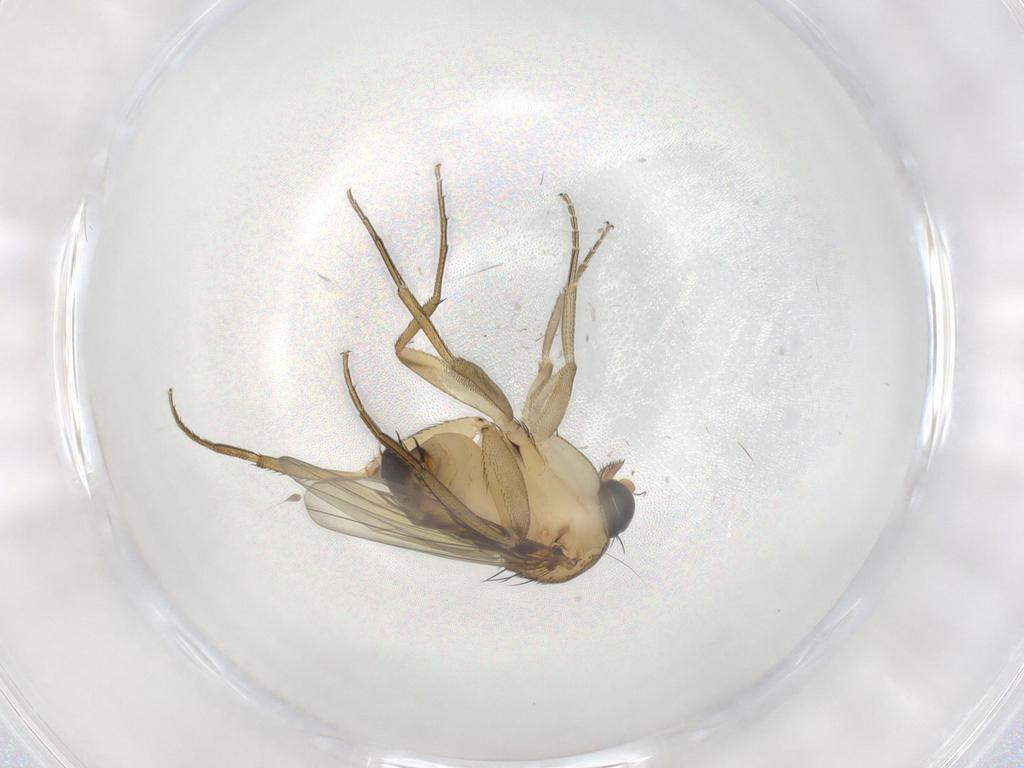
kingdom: Animalia
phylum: Arthropoda
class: Insecta
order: Diptera
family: Phoridae
